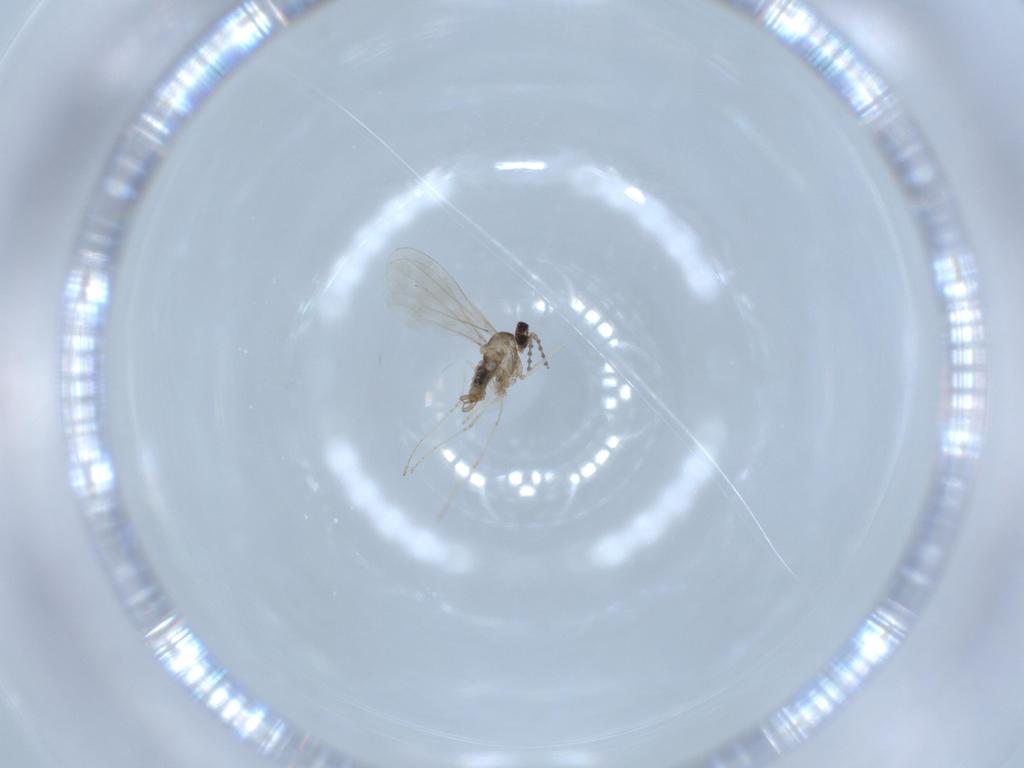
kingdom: Animalia
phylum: Arthropoda
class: Insecta
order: Diptera
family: Cecidomyiidae
